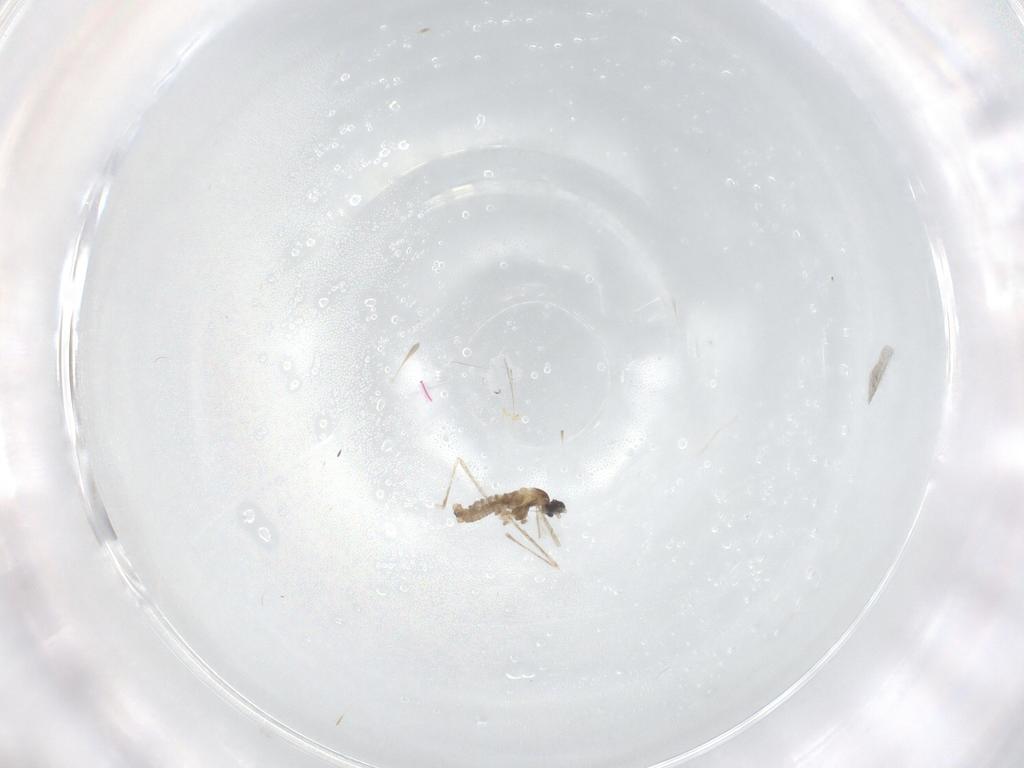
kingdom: Animalia
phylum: Arthropoda
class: Insecta
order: Diptera
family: Cecidomyiidae
